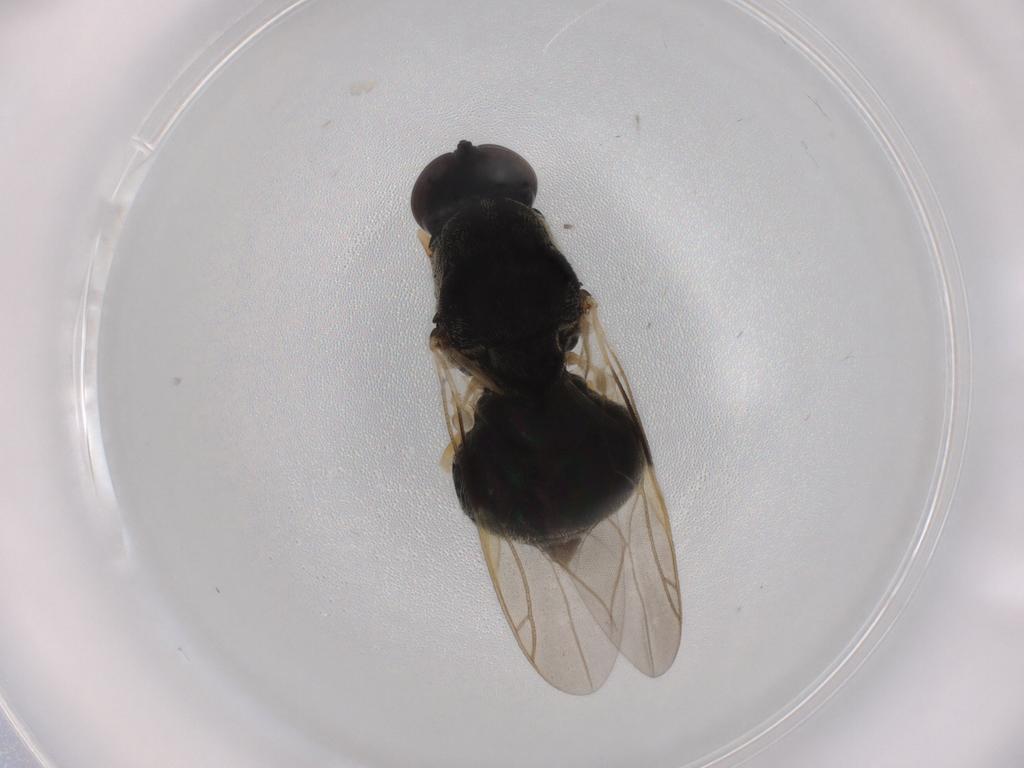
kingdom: Animalia
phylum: Arthropoda
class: Insecta
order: Diptera
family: Stratiomyidae
